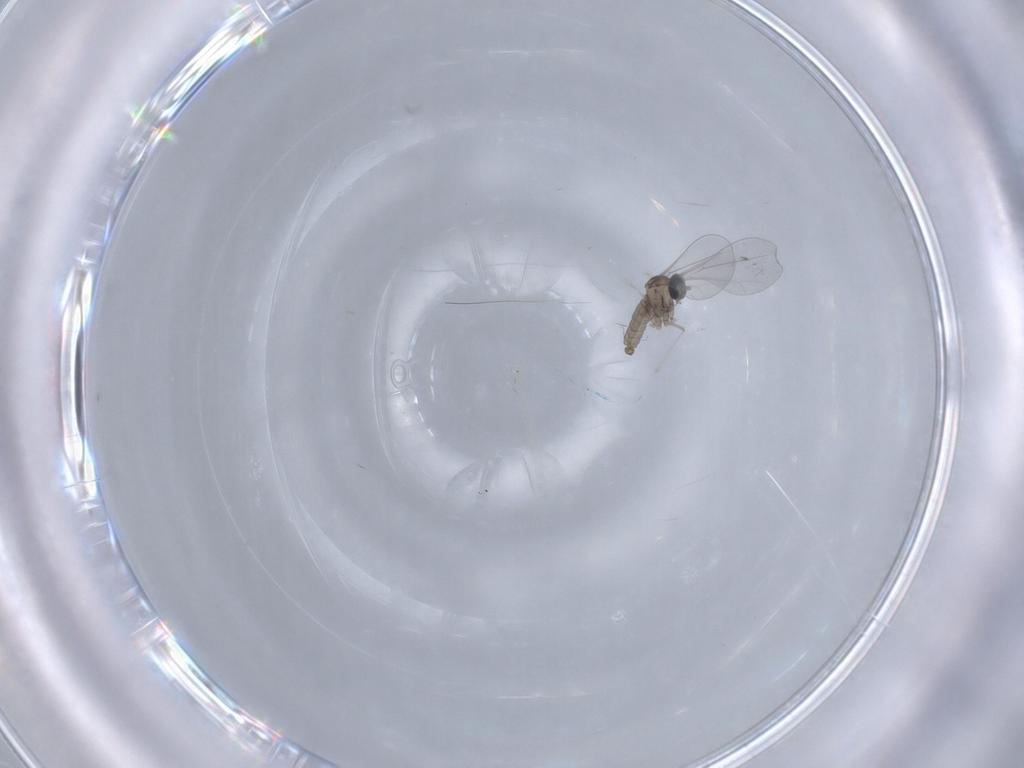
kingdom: Animalia
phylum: Arthropoda
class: Insecta
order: Diptera
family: Cecidomyiidae
